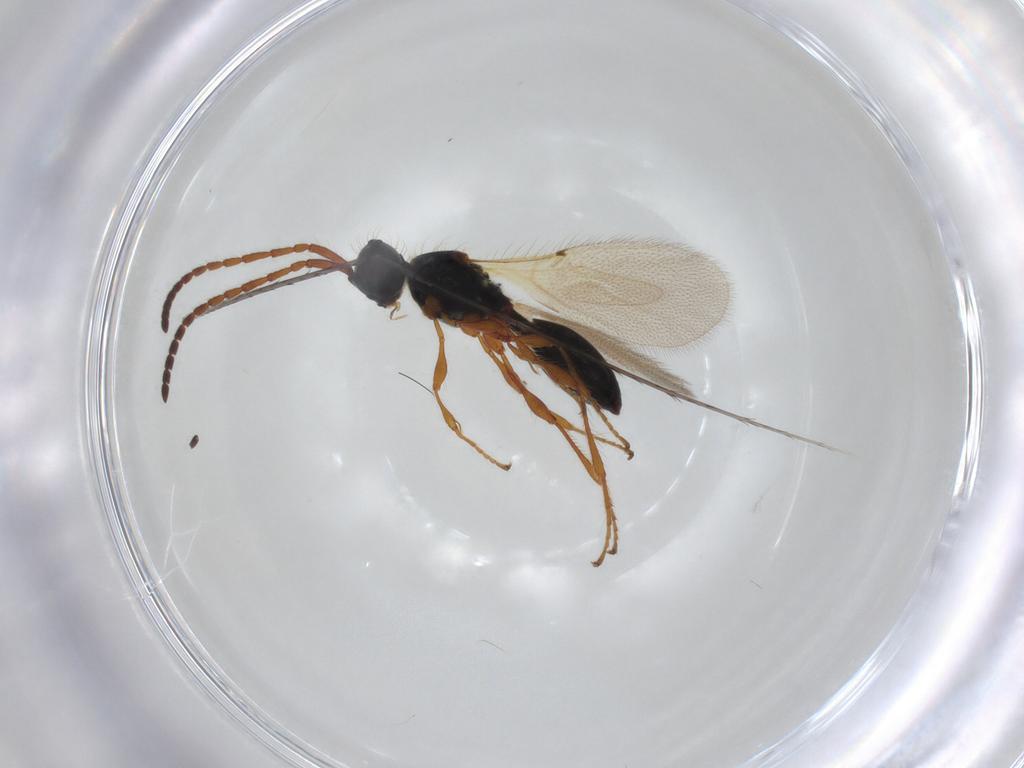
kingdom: Animalia
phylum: Arthropoda
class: Insecta
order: Hymenoptera
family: Diapriidae
